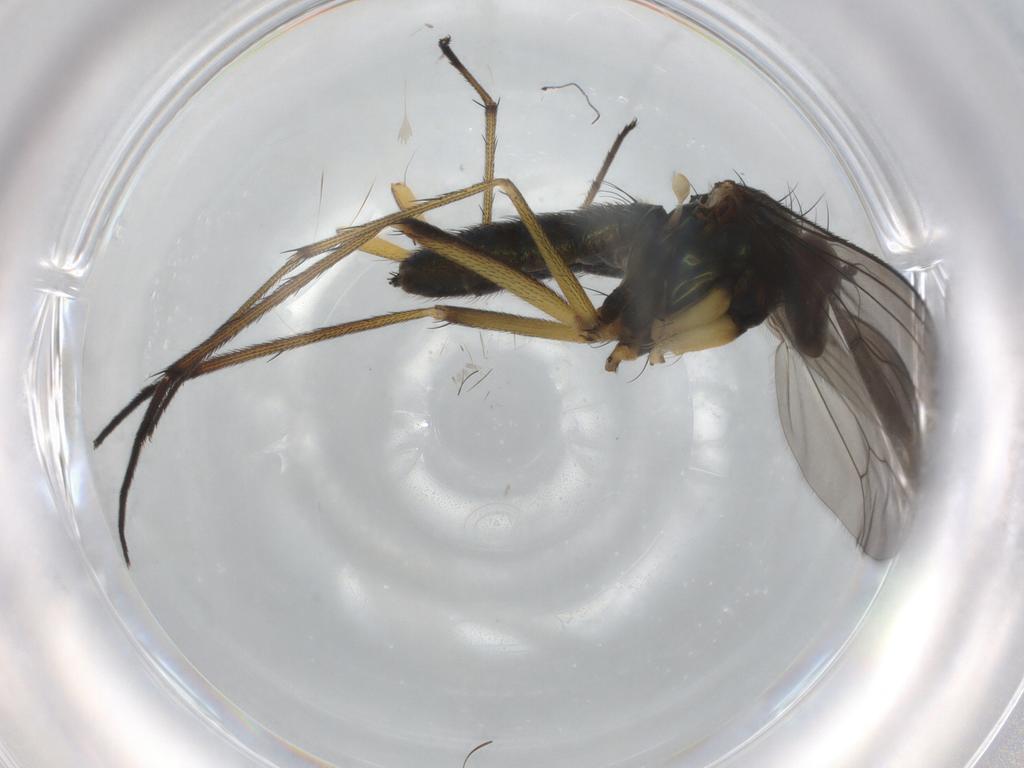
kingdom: Animalia
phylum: Arthropoda
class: Insecta
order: Diptera
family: Dolichopodidae
